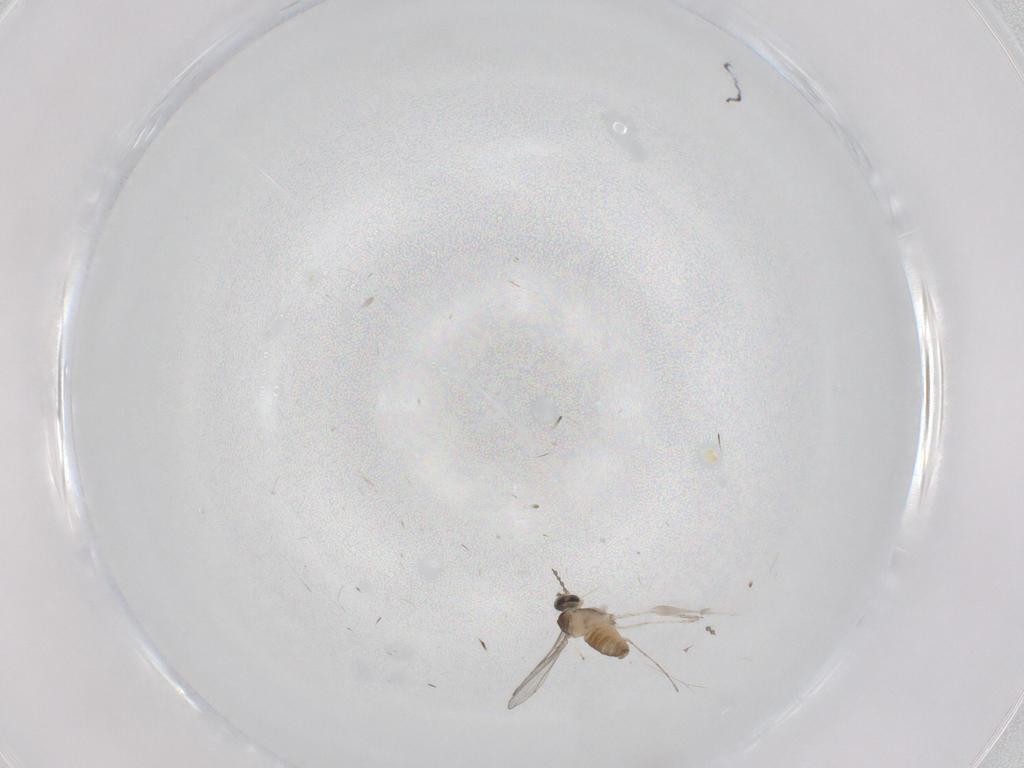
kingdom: Animalia
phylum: Arthropoda
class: Insecta
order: Diptera
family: Cecidomyiidae
